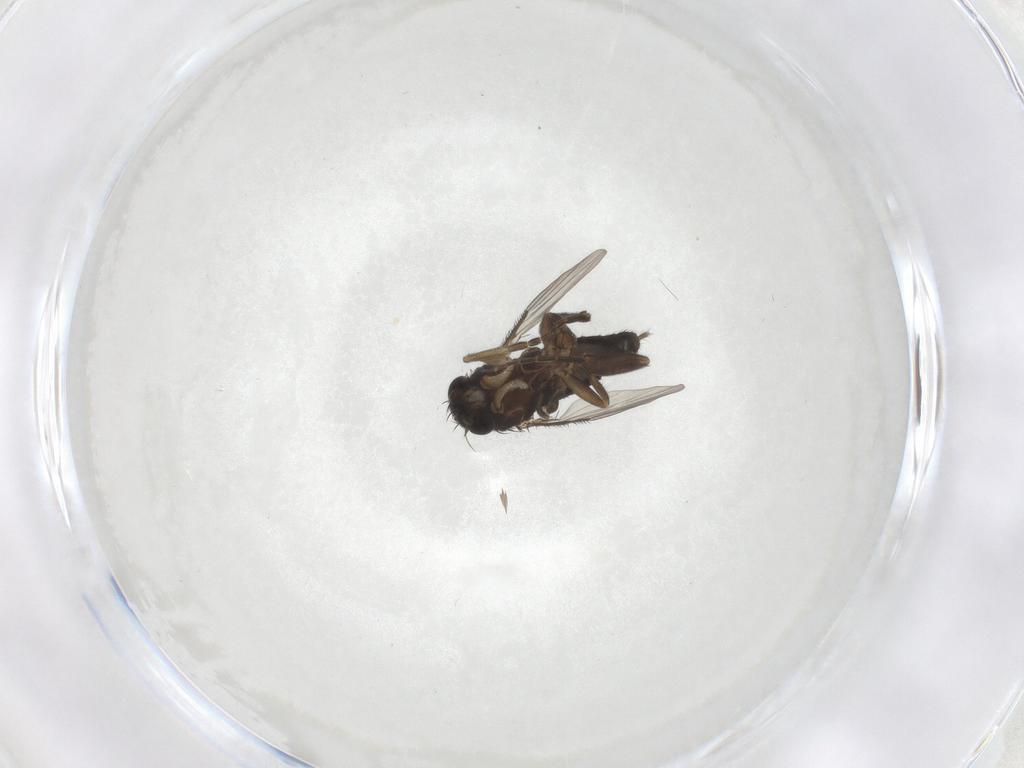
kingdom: Animalia
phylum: Arthropoda
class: Insecta
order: Diptera
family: Phoridae
